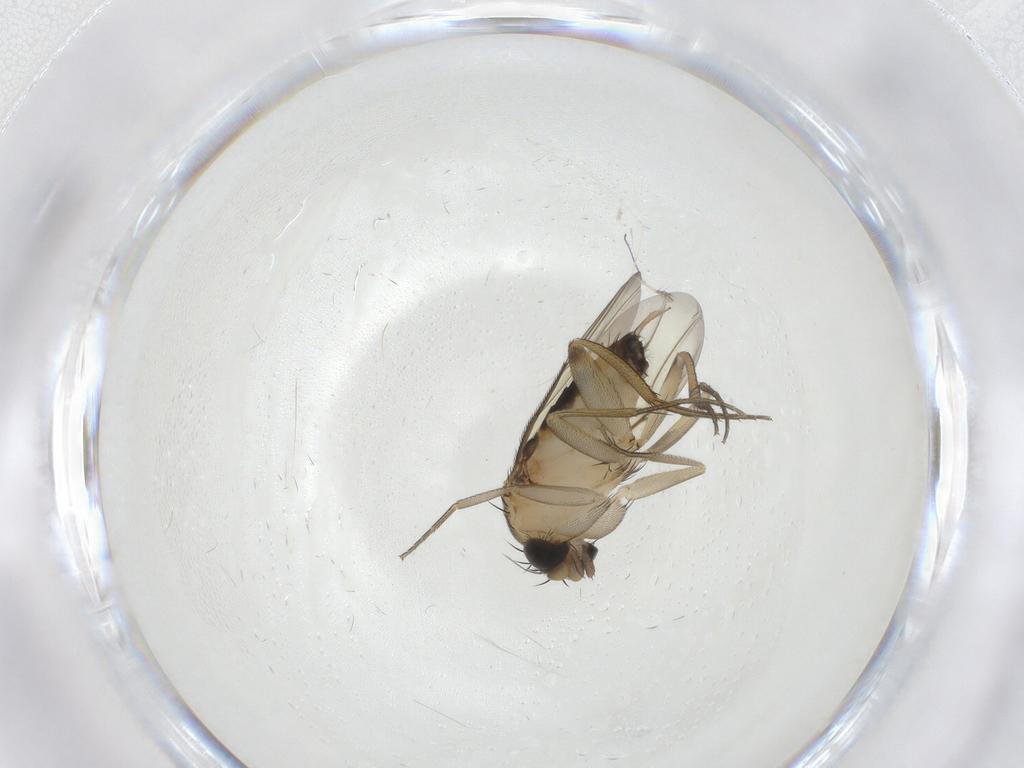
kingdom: Animalia
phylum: Arthropoda
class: Insecta
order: Diptera
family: Phoridae
